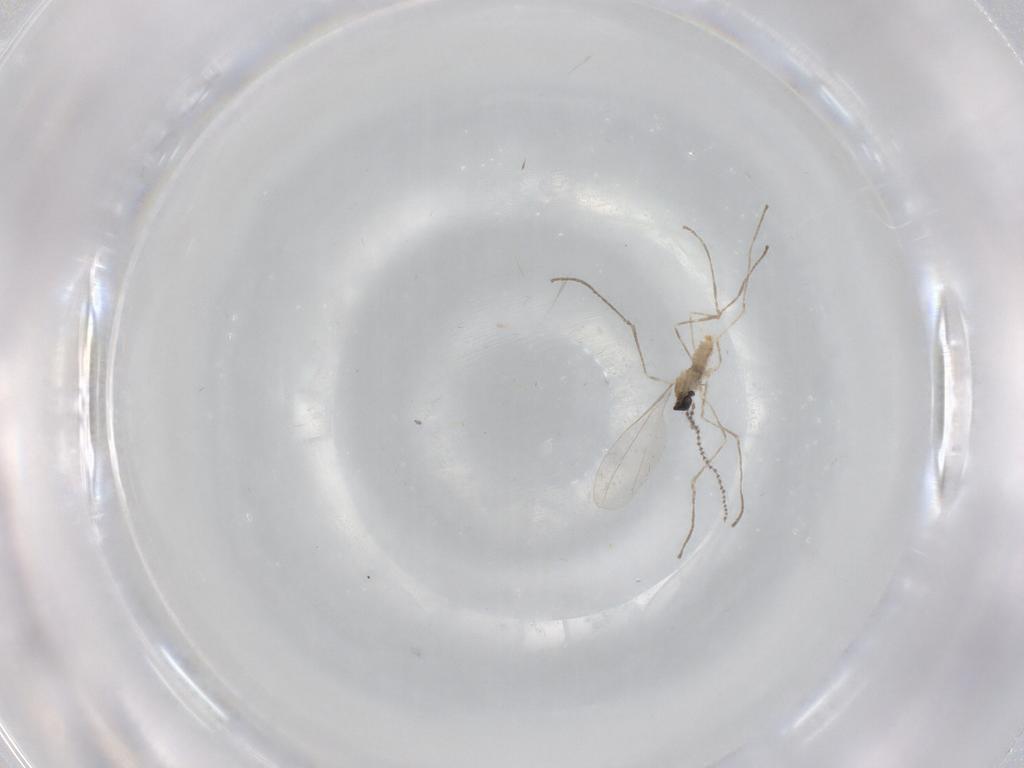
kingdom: Animalia
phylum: Arthropoda
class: Insecta
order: Diptera
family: Cecidomyiidae
